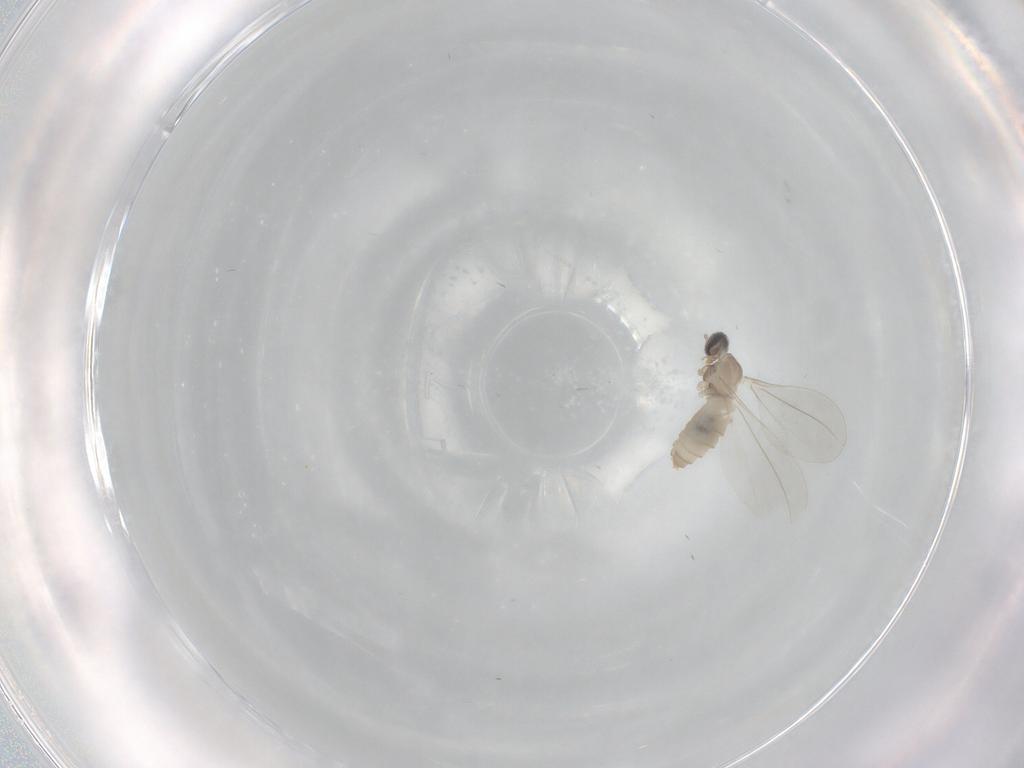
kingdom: Animalia
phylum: Arthropoda
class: Insecta
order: Diptera
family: Cecidomyiidae
